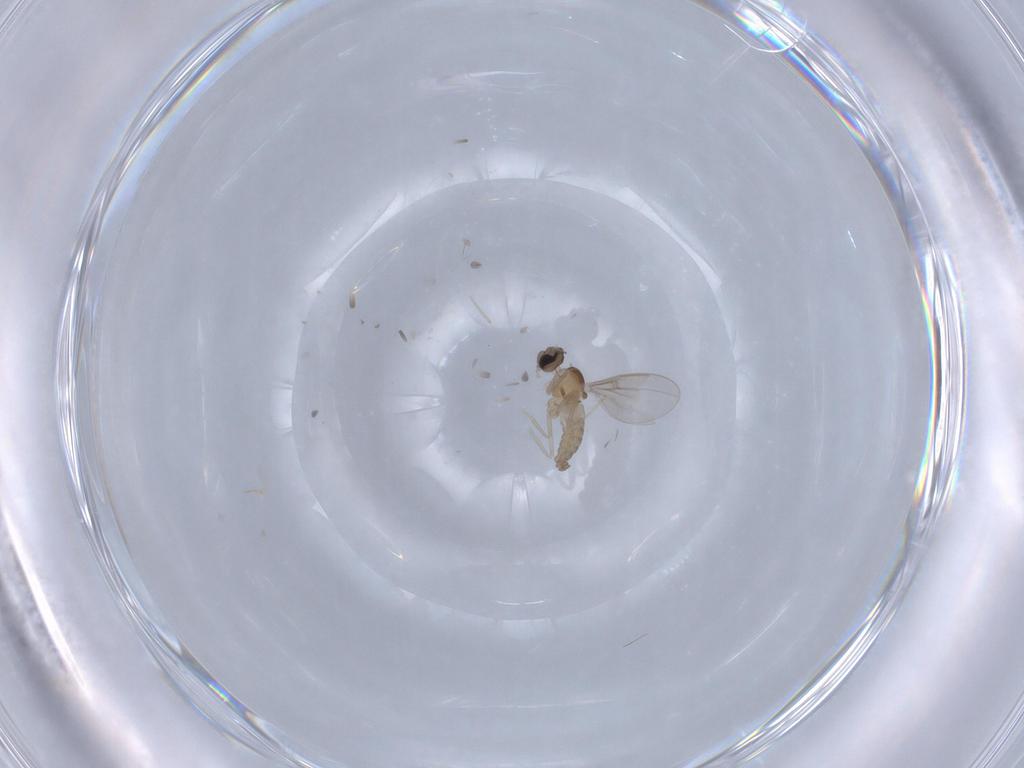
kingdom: Animalia
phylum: Arthropoda
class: Insecta
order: Diptera
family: Cecidomyiidae
